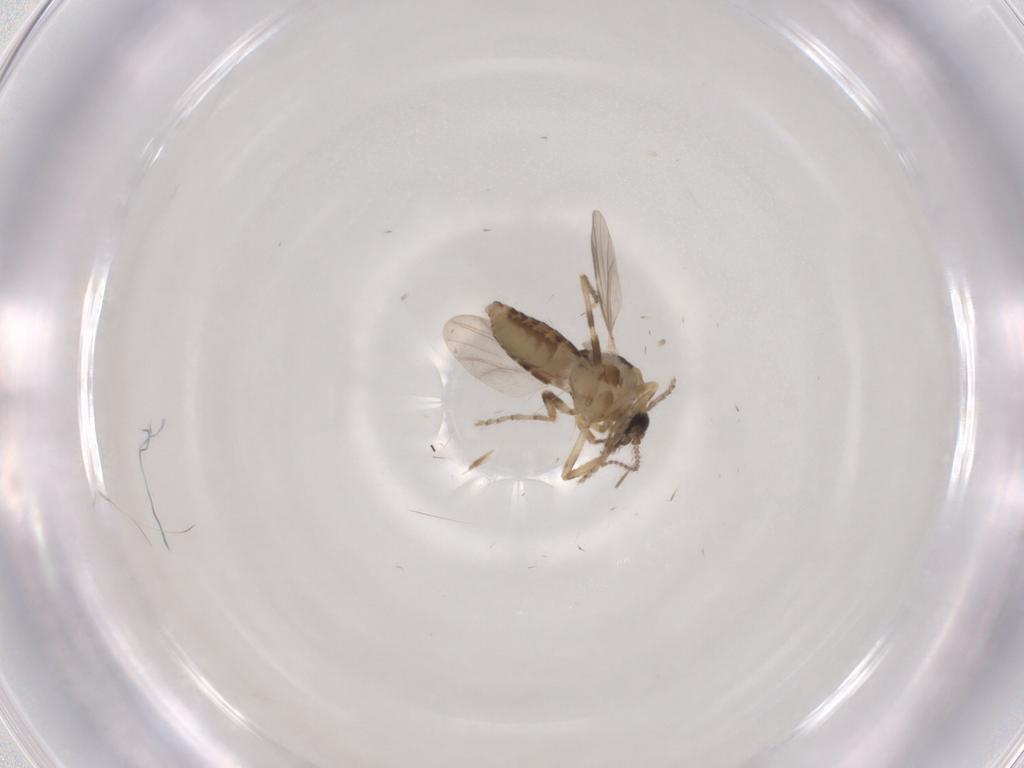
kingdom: Animalia
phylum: Arthropoda
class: Insecta
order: Diptera
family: Ceratopogonidae
